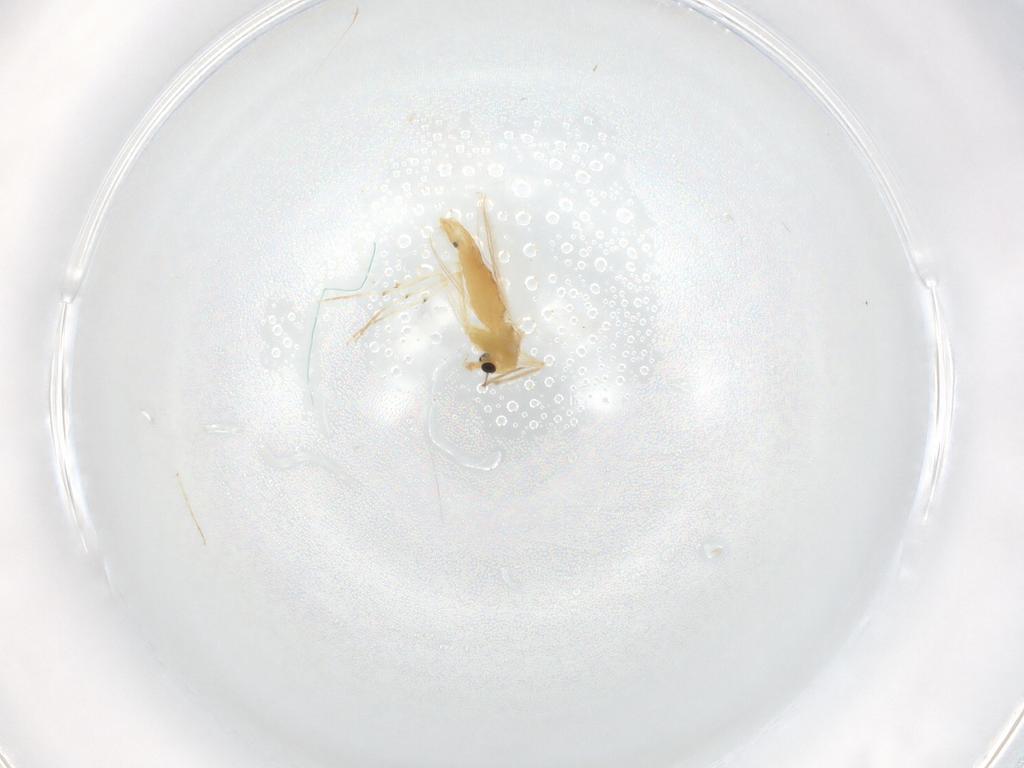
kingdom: Animalia
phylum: Arthropoda
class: Insecta
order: Diptera
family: Chironomidae
